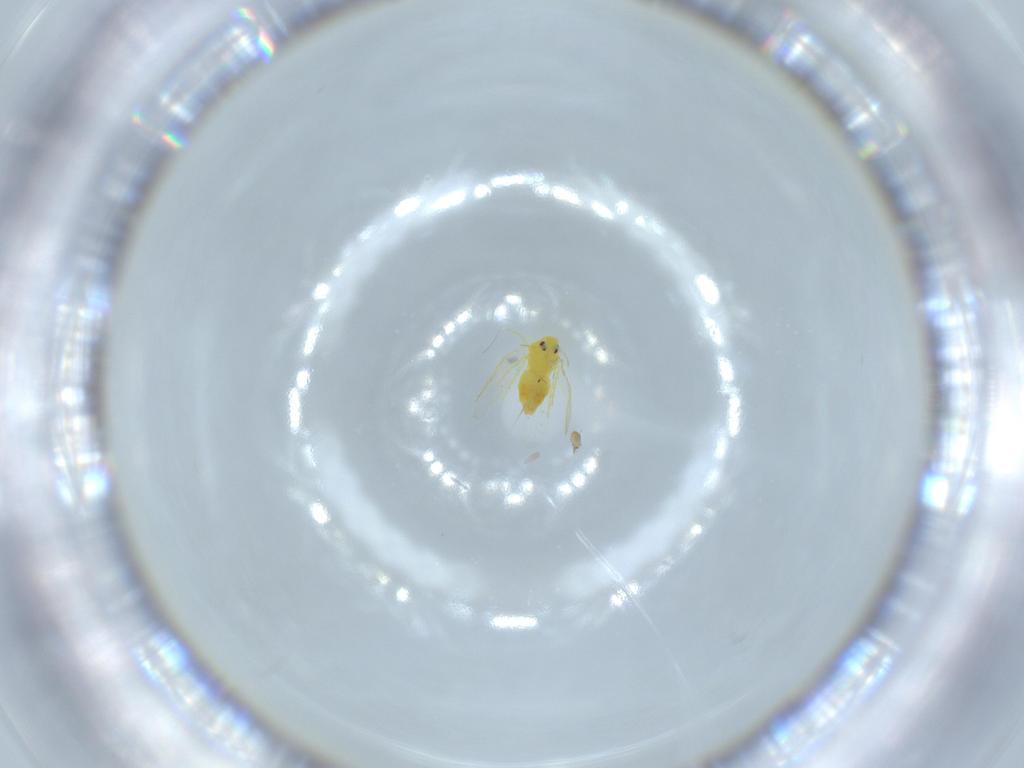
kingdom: Animalia
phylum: Arthropoda
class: Insecta
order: Hemiptera
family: Aleyrodidae
